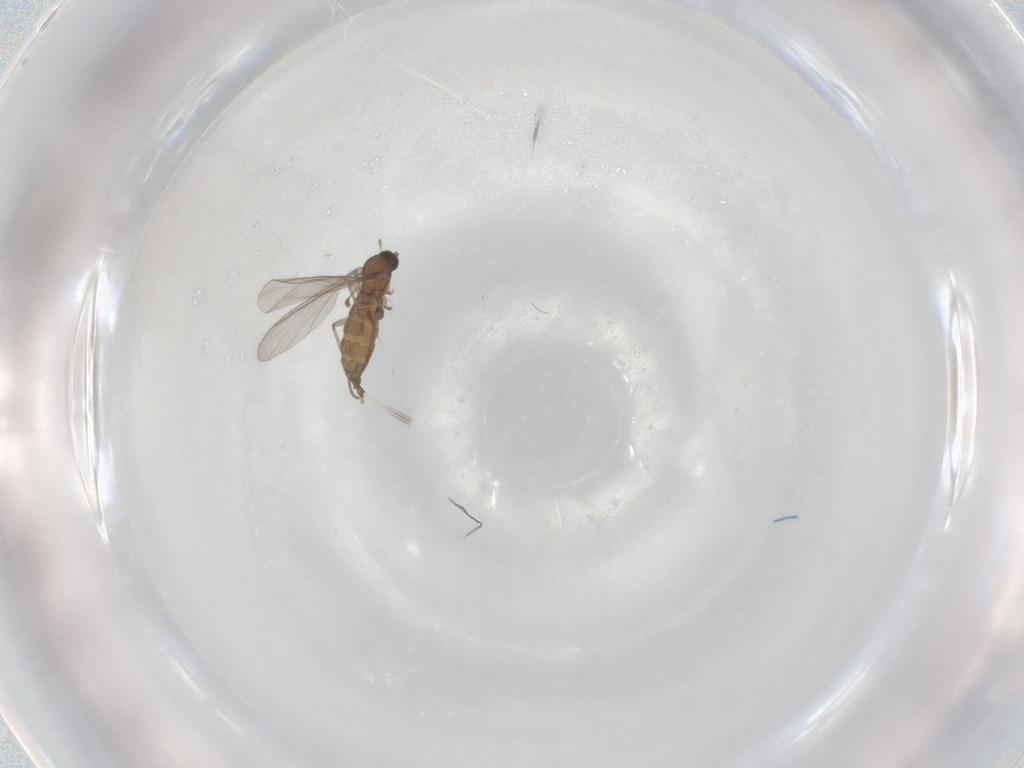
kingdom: Animalia
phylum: Arthropoda
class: Insecta
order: Diptera
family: Sciaridae
